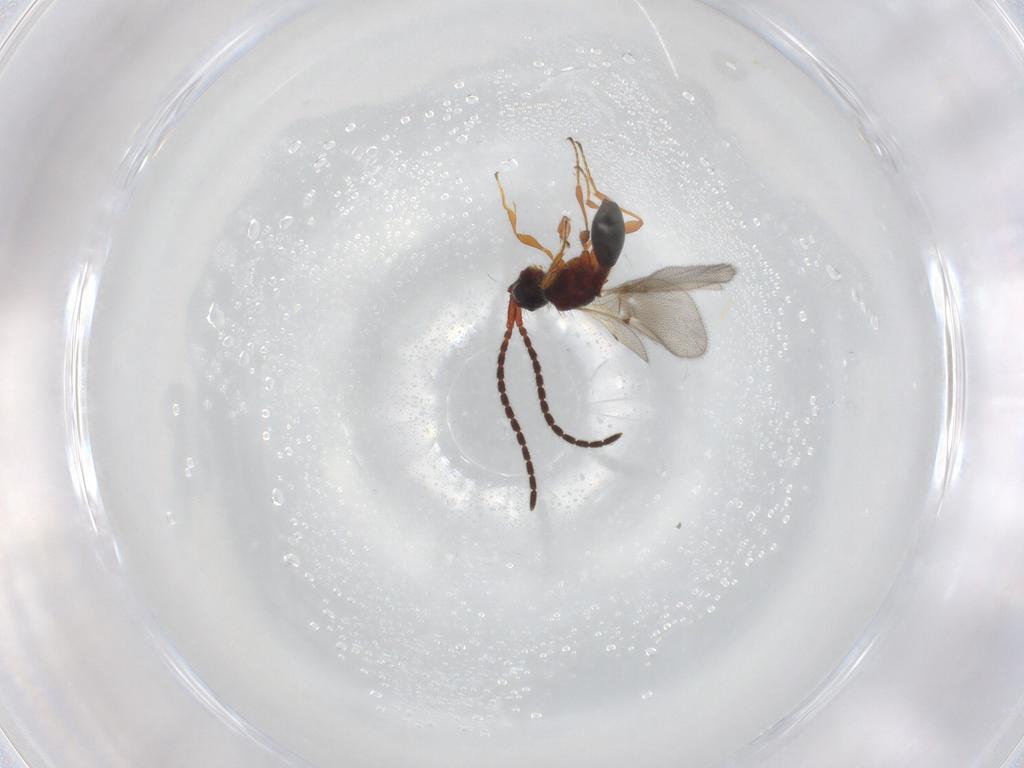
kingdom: Animalia
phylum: Arthropoda
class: Insecta
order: Hymenoptera
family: Diapriidae
